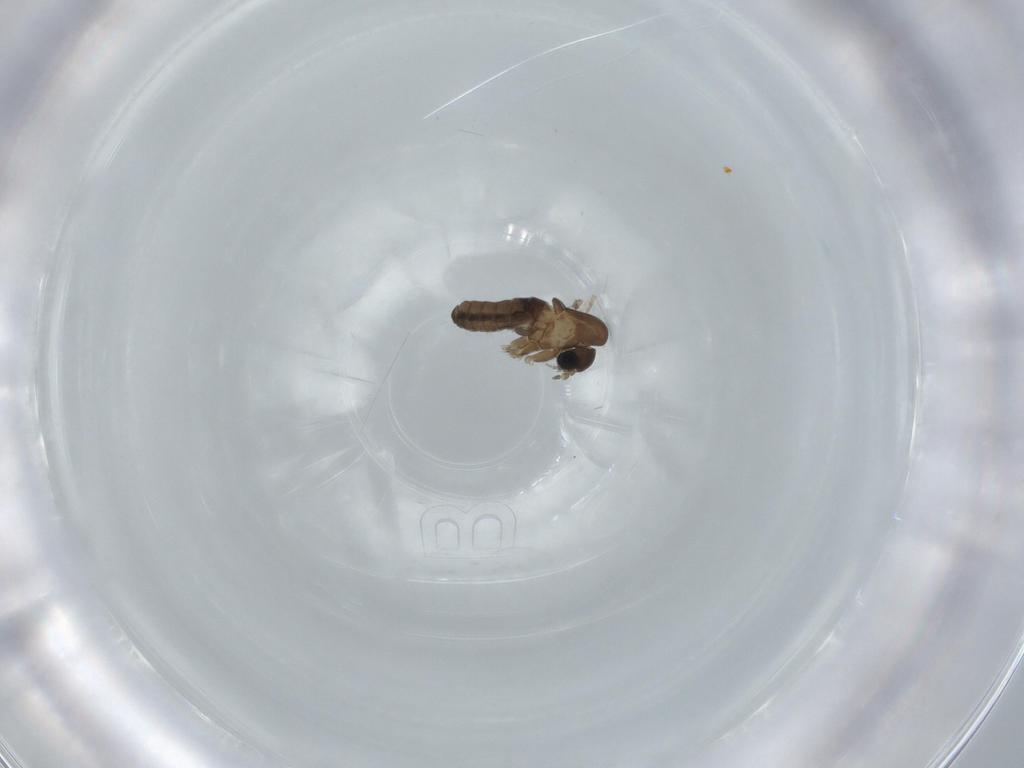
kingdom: Animalia
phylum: Arthropoda
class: Insecta
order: Diptera
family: Psychodidae
